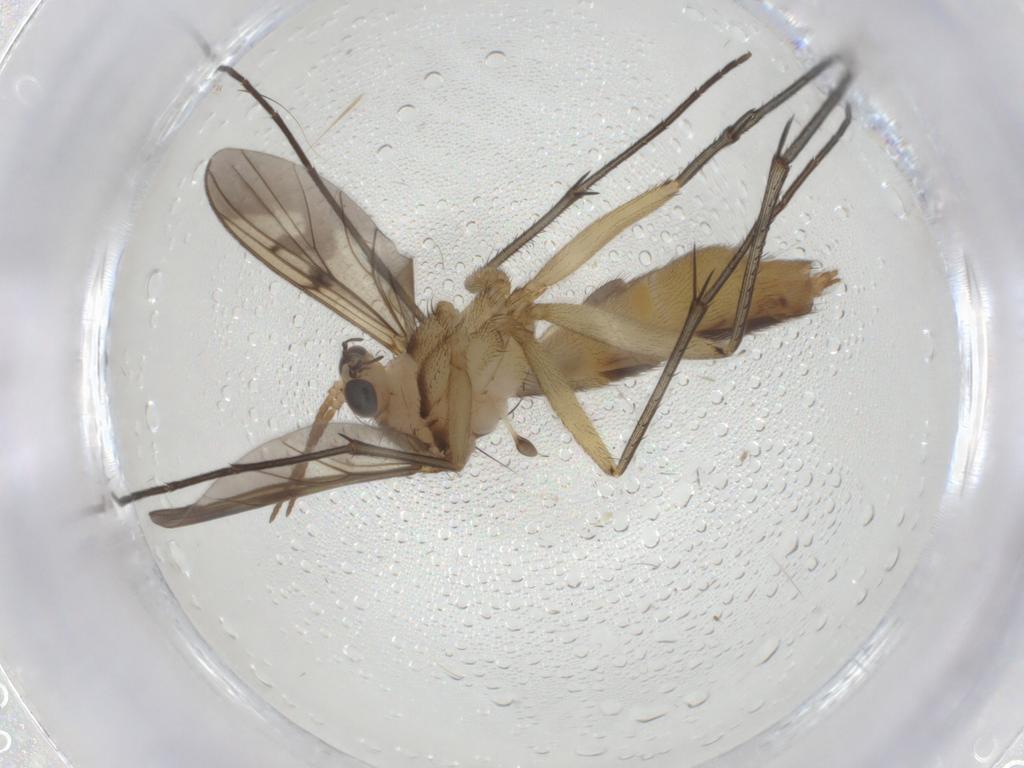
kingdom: Animalia
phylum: Arthropoda
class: Insecta
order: Diptera
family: Mycetophilidae
